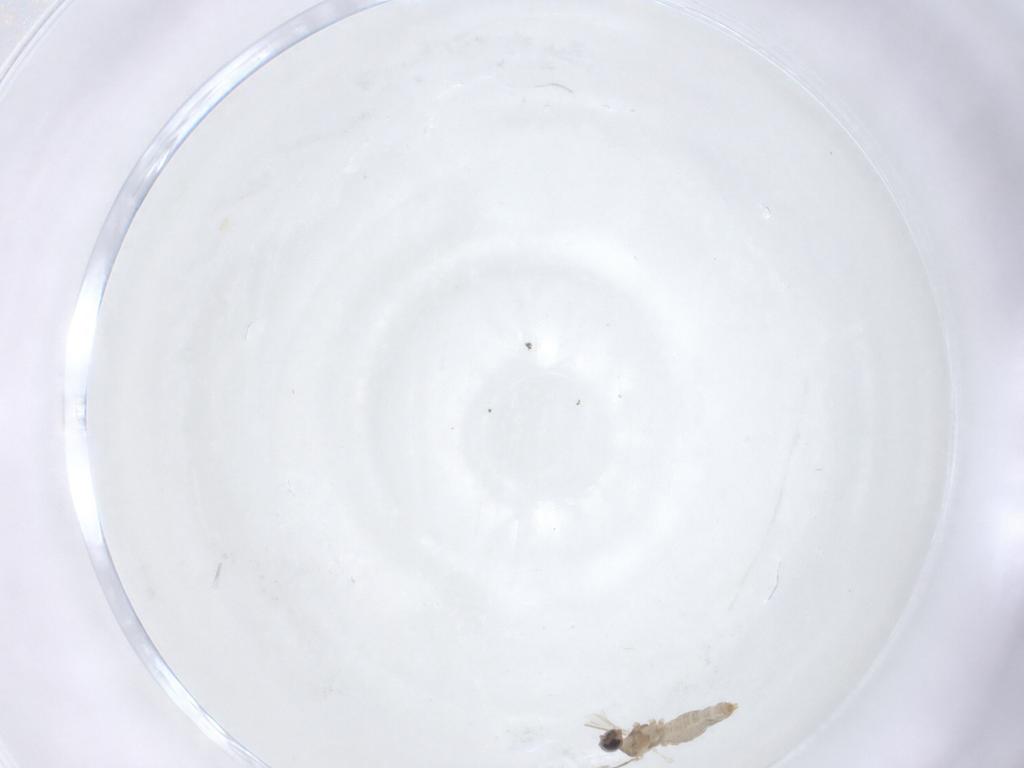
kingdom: Animalia
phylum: Arthropoda
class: Insecta
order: Diptera
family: Cecidomyiidae
